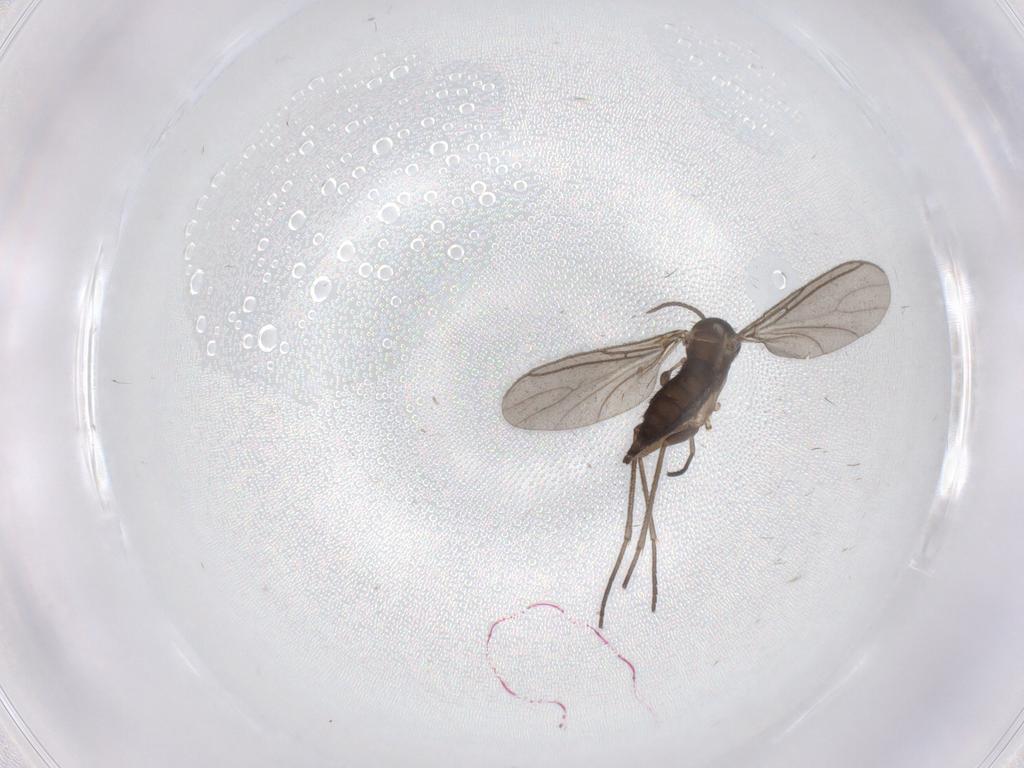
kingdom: Animalia
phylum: Arthropoda
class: Insecta
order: Diptera
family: Sciaridae
